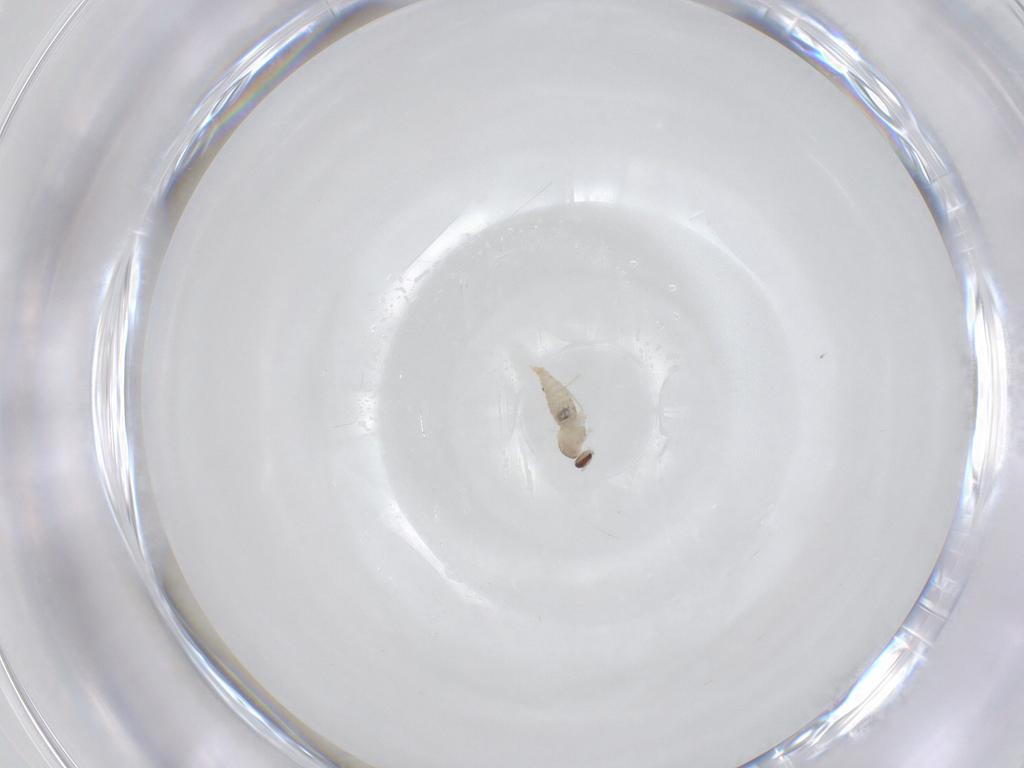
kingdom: Animalia
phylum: Arthropoda
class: Insecta
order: Diptera
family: Cecidomyiidae
